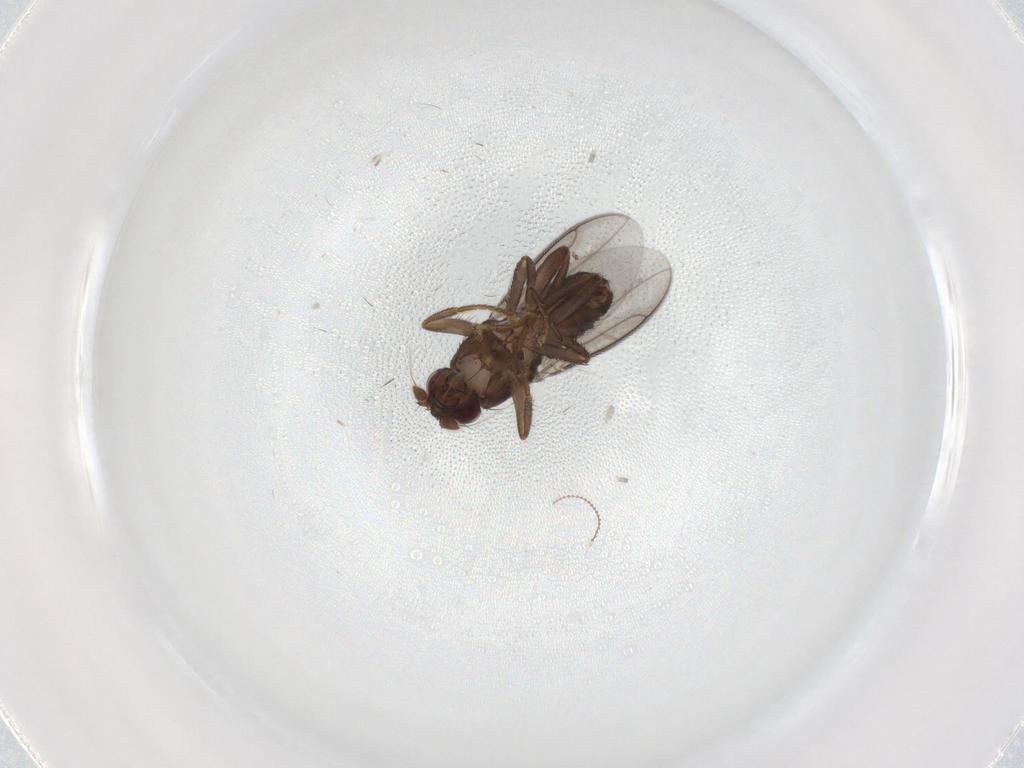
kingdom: Animalia
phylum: Arthropoda
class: Insecta
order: Diptera
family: Sphaeroceridae
